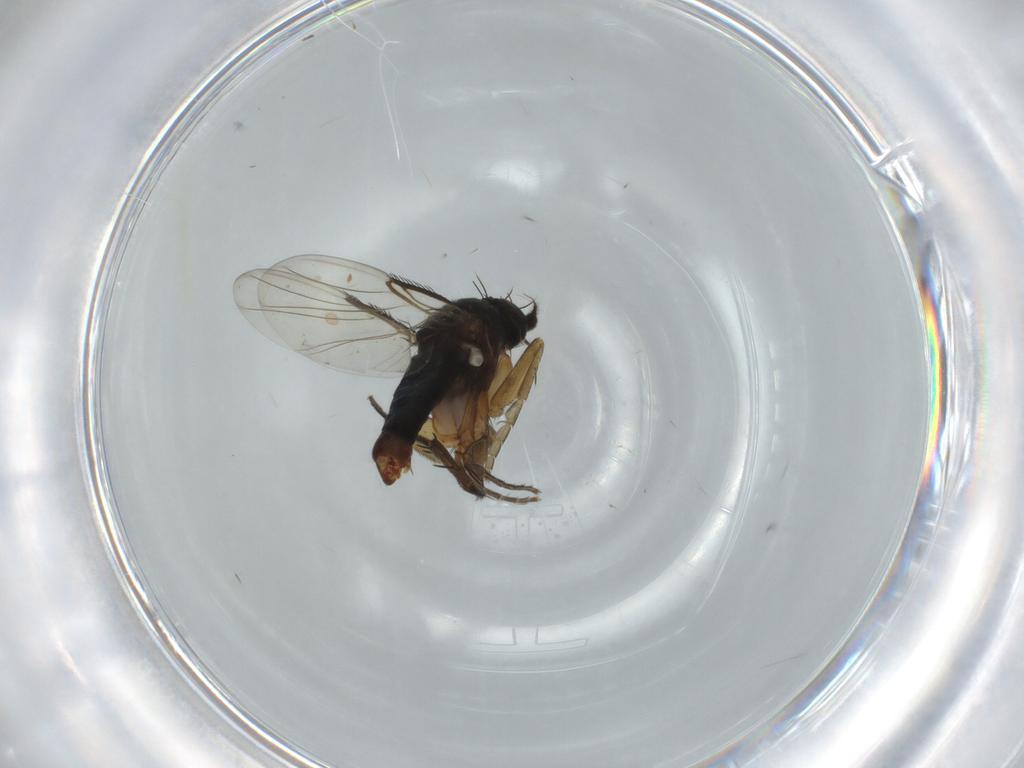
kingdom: Animalia
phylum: Arthropoda
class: Insecta
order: Diptera
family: Phoridae
